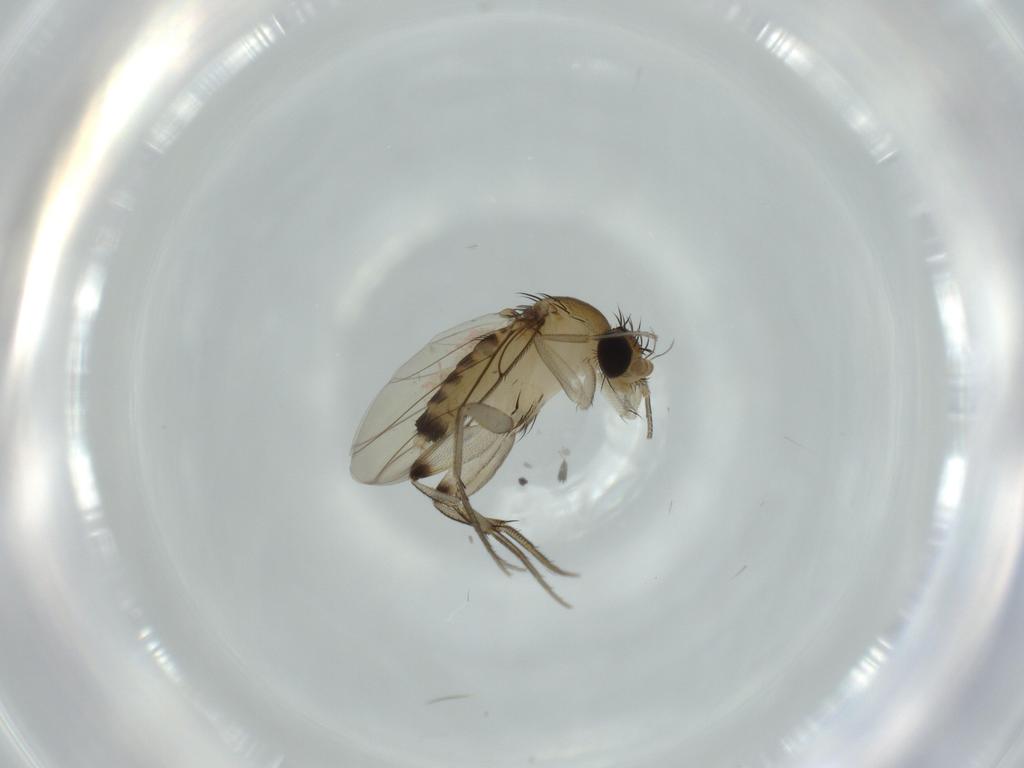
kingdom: Animalia
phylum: Arthropoda
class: Insecta
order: Diptera
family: Phoridae
